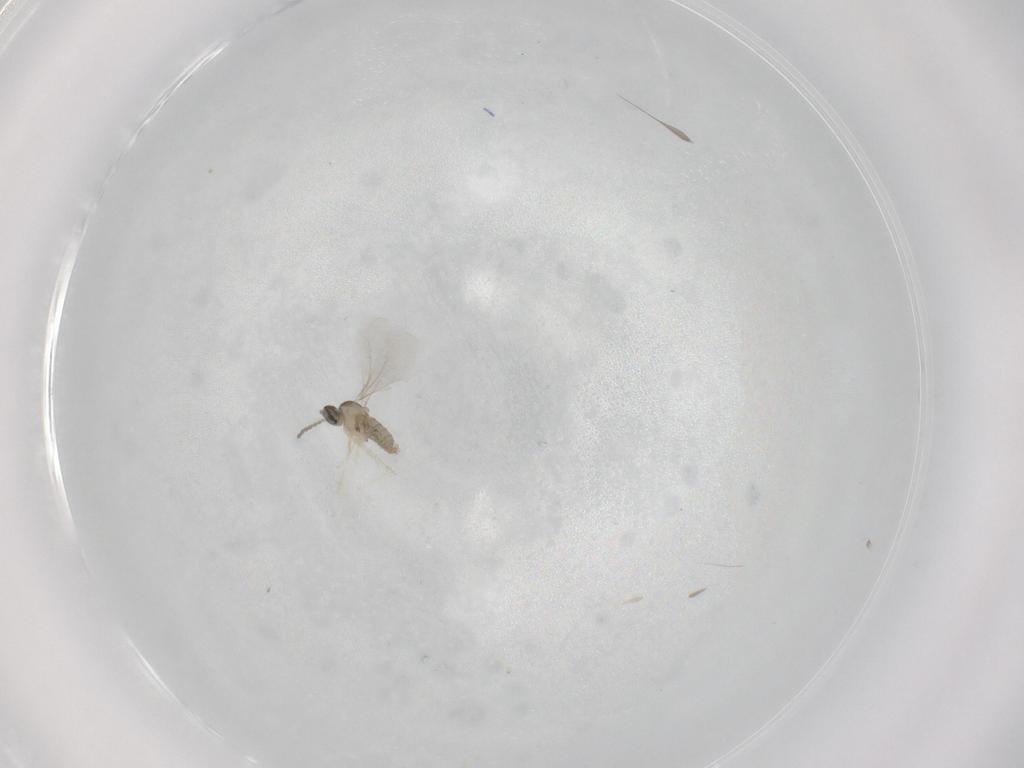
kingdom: Animalia
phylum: Arthropoda
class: Insecta
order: Diptera
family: Cecidomyiidae
